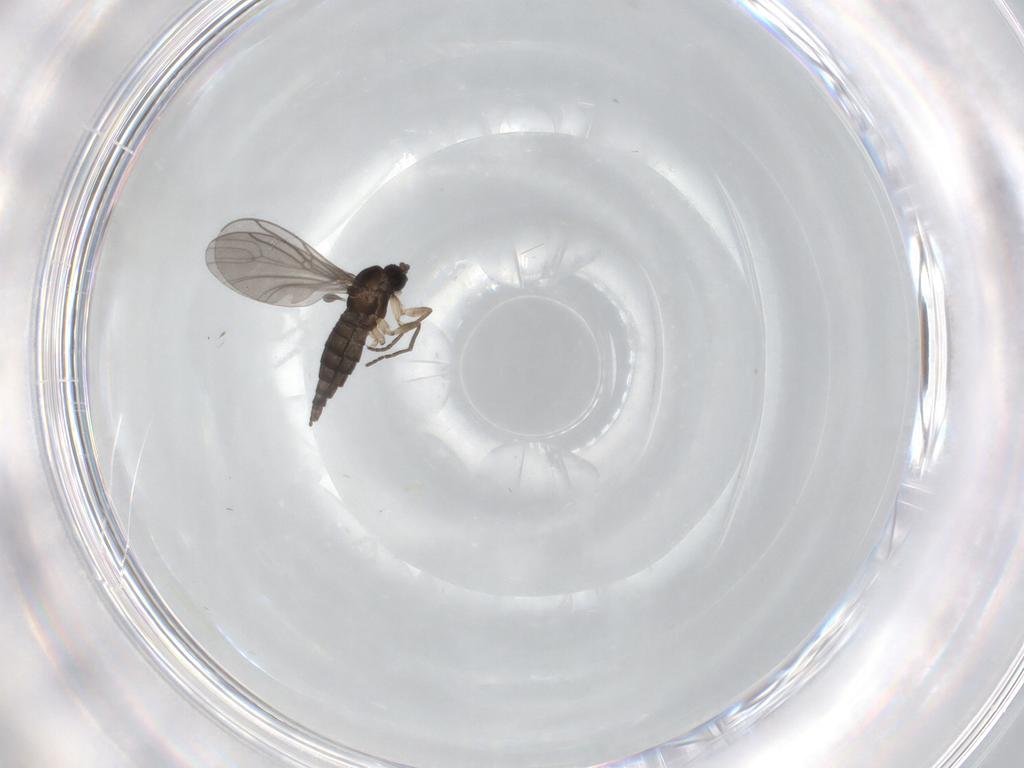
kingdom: Animalia
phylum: Arthropoda
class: Insecta
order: Diptera
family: Sciaridae
